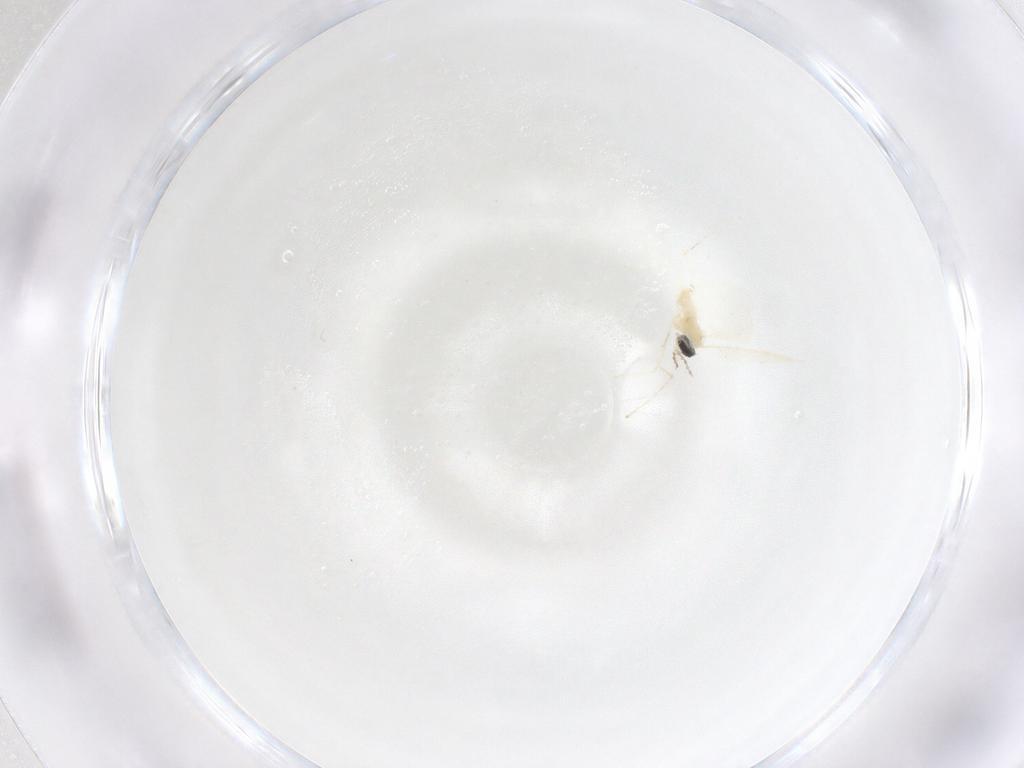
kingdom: Animalia
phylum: Arthropoda
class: Insecta
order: Diptera
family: Cecidomyiidae
